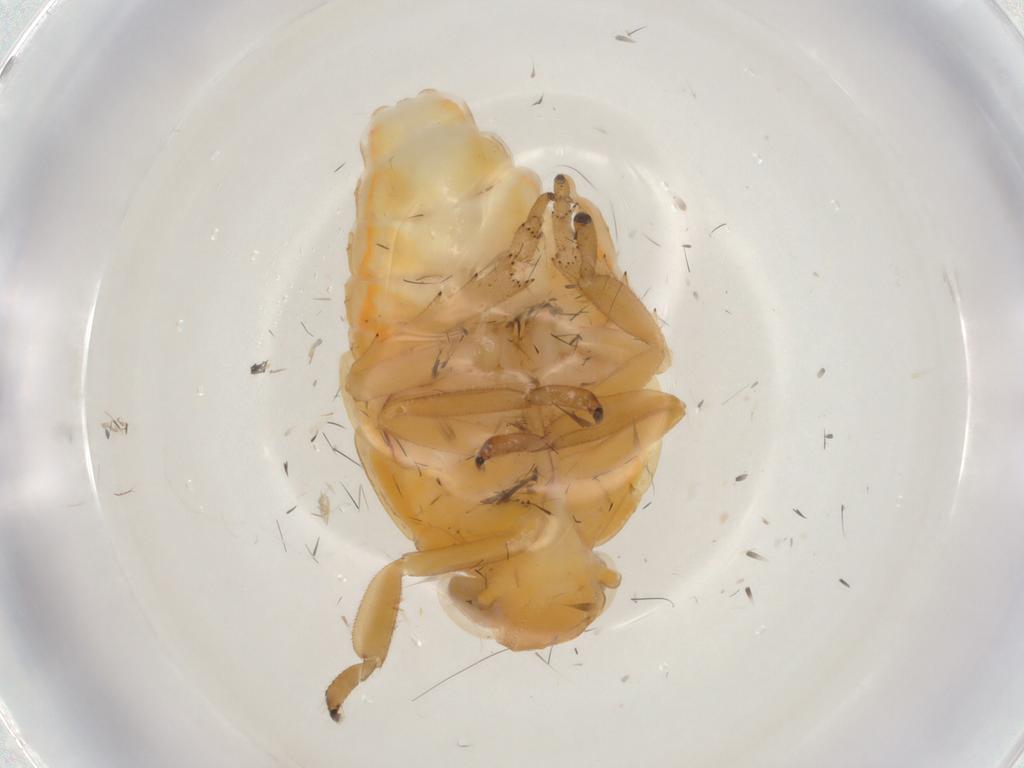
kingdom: Animalia
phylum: Arthropoda
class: Insecta
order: Hemiptera
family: Issidae
